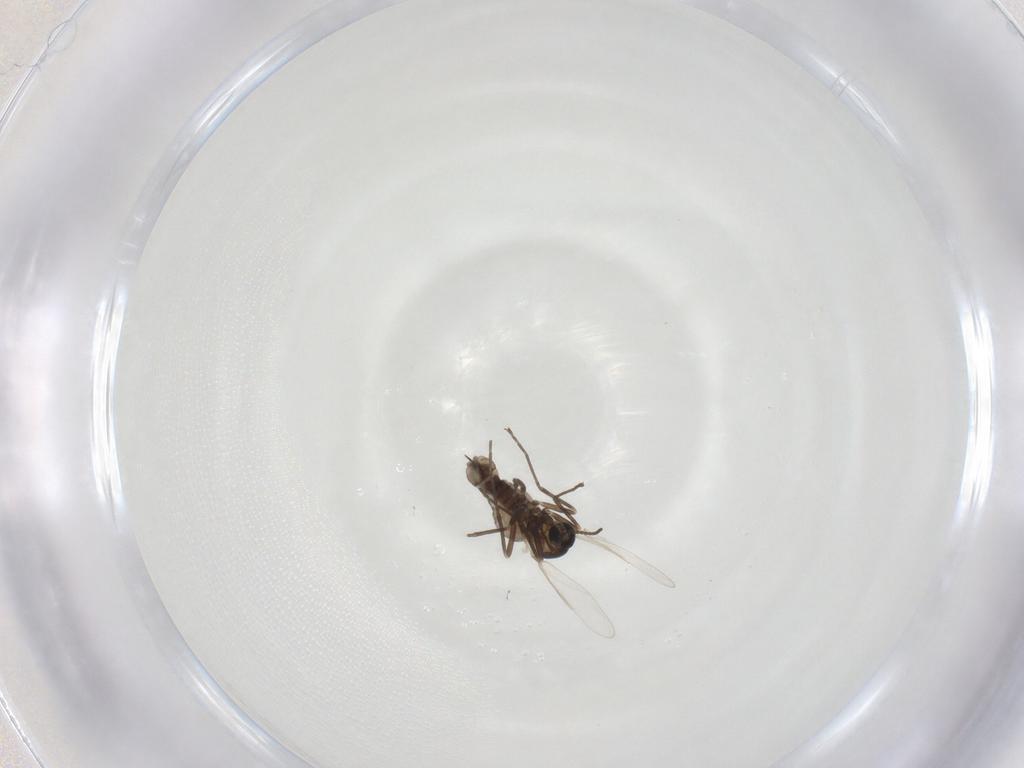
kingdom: Animalia
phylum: Arthropoda
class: Insecta
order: Diptera
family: Cecidomyiidae
